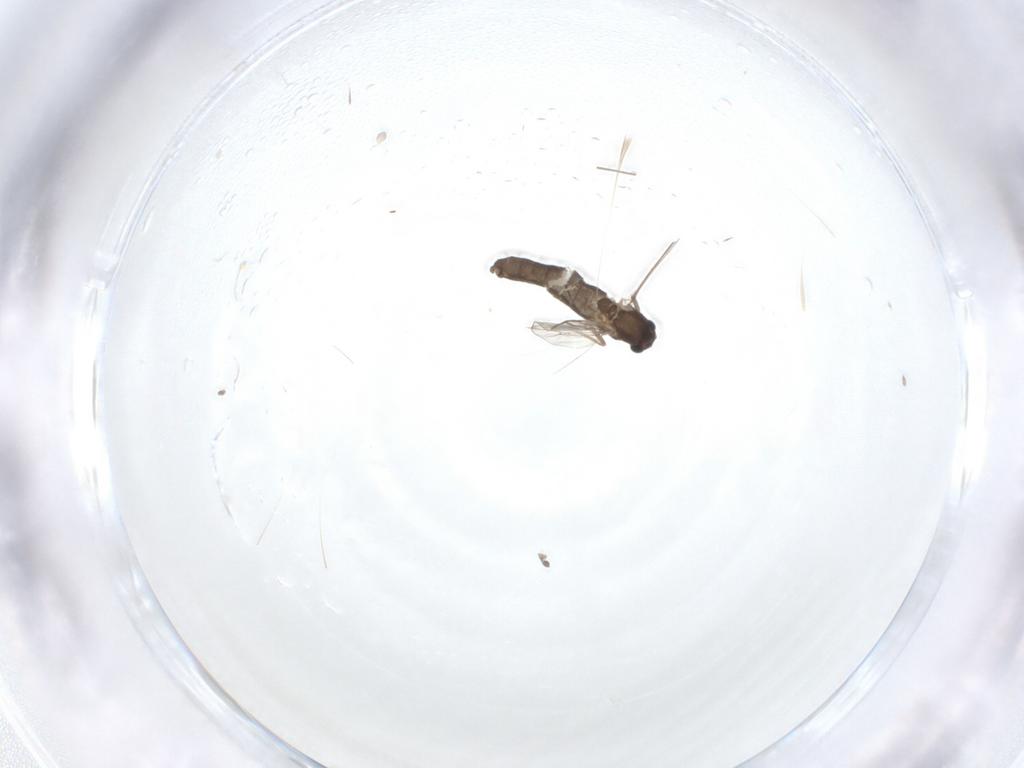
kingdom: Animalia
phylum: Arthropoda
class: Insecta
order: Diptera
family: Chironomidae
